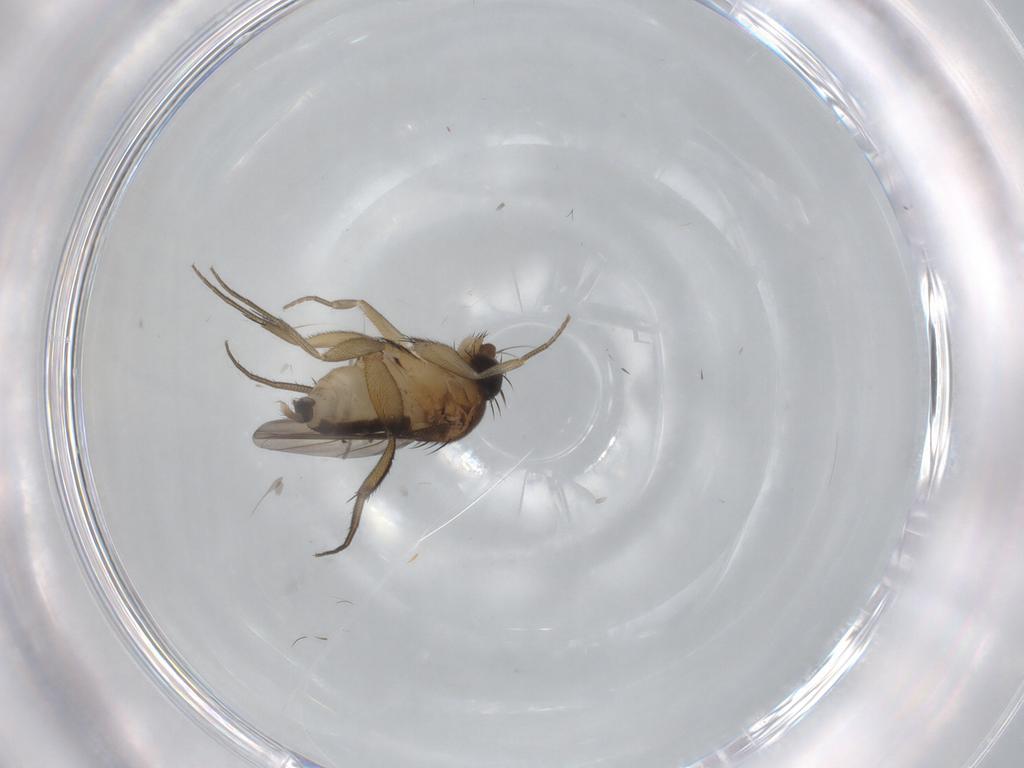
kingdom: Animalia
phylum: Arthropoda
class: Insecta
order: Diptera
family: Phoridae
